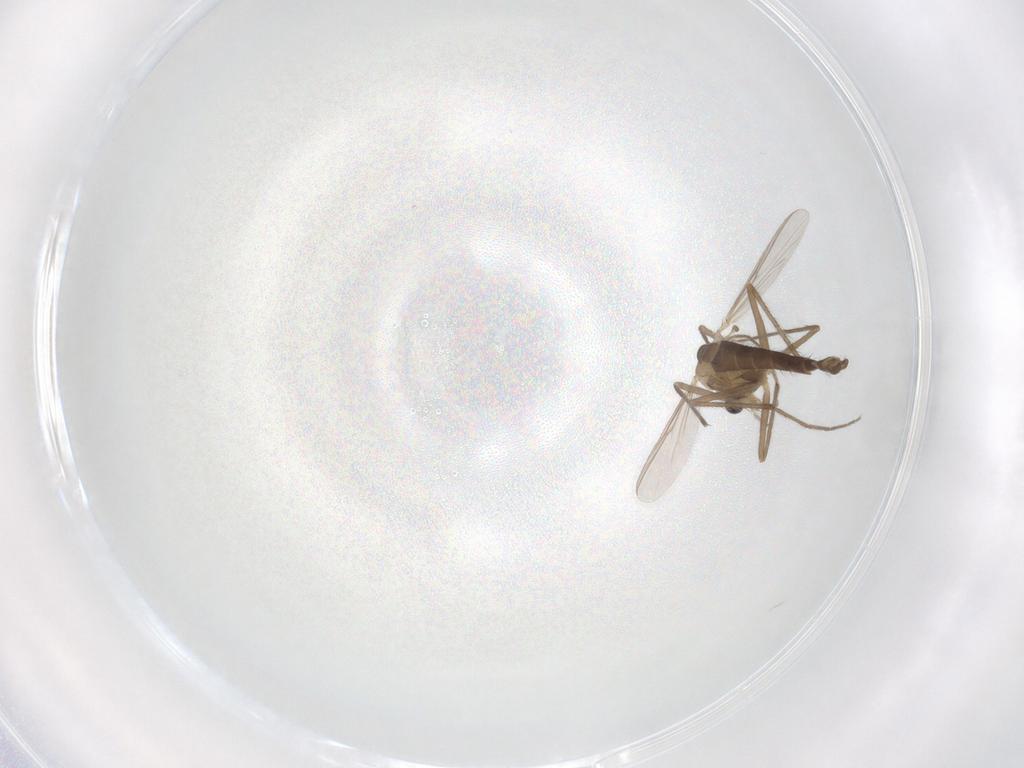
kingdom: Animalia
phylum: Arthropoda
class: Insecta
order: Diptera
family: Chironomidae
